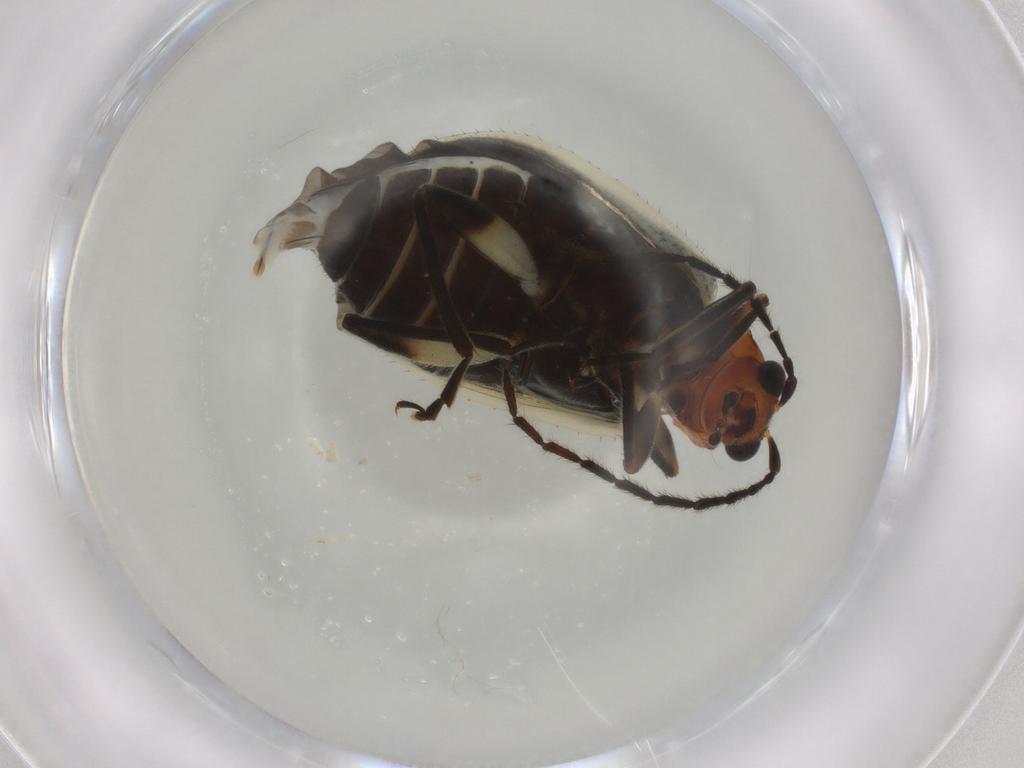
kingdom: Animalia
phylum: Arthropoda
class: Insecta
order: Coleoptera
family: Chrysomelidae
